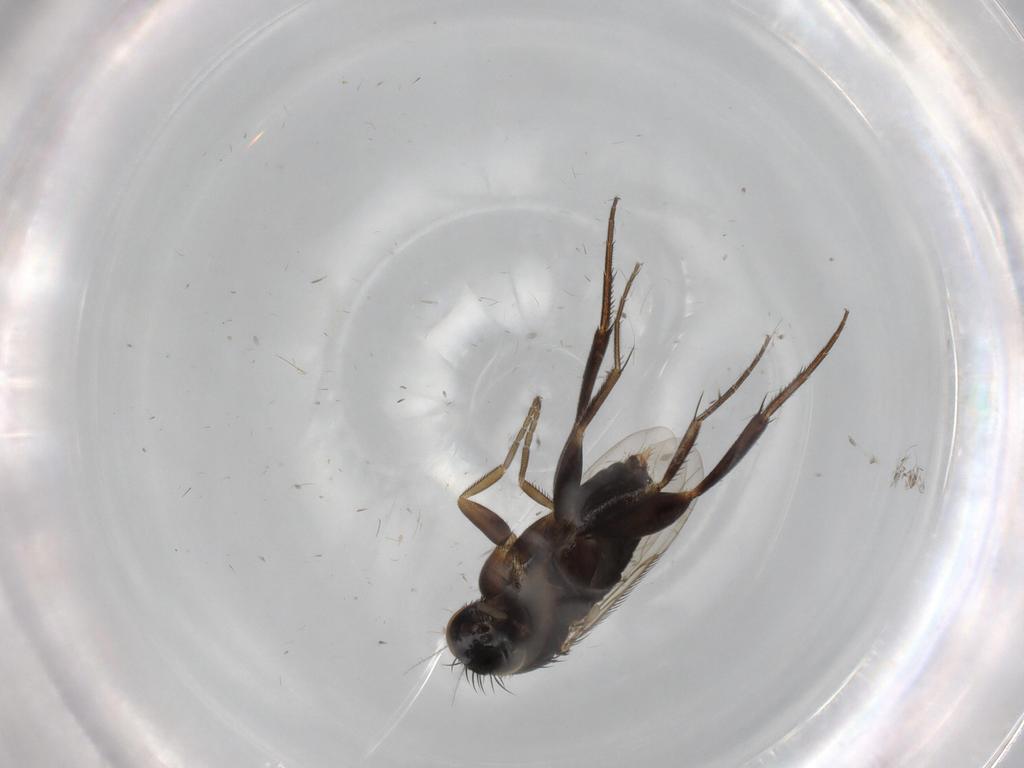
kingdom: Animalia
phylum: Arthropoda
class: Insecta
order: Diptera
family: Phoridae
